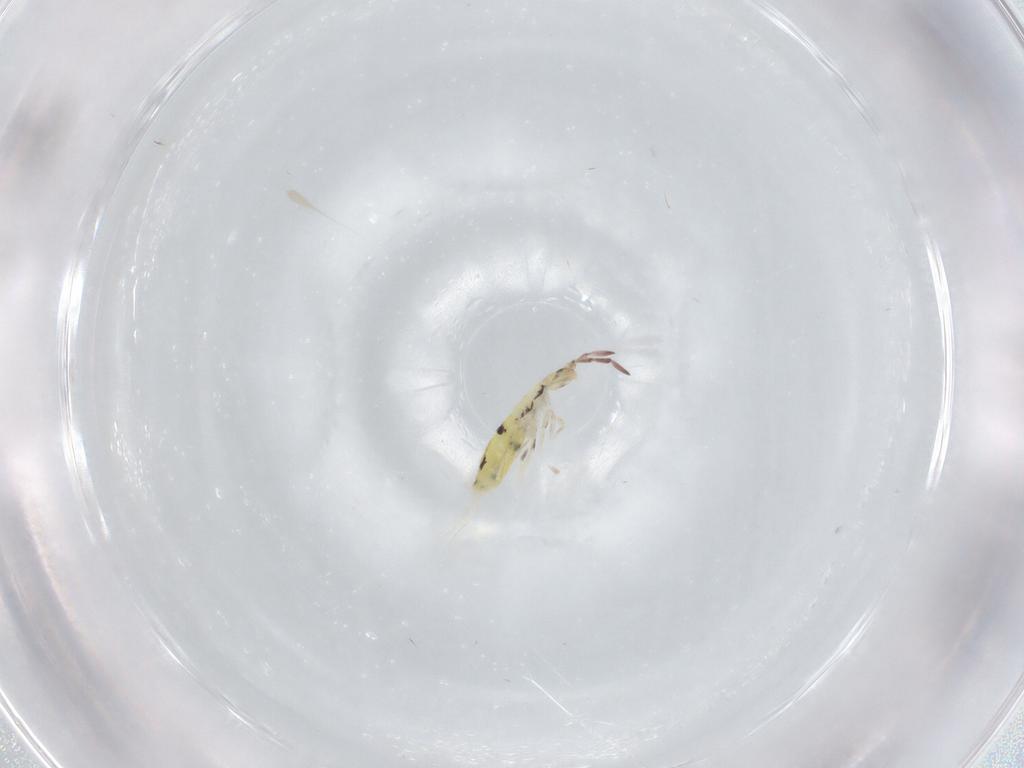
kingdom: Animalia
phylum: Arthropoda
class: Collembola
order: Entomobryomorpha
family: Entomobryidae
